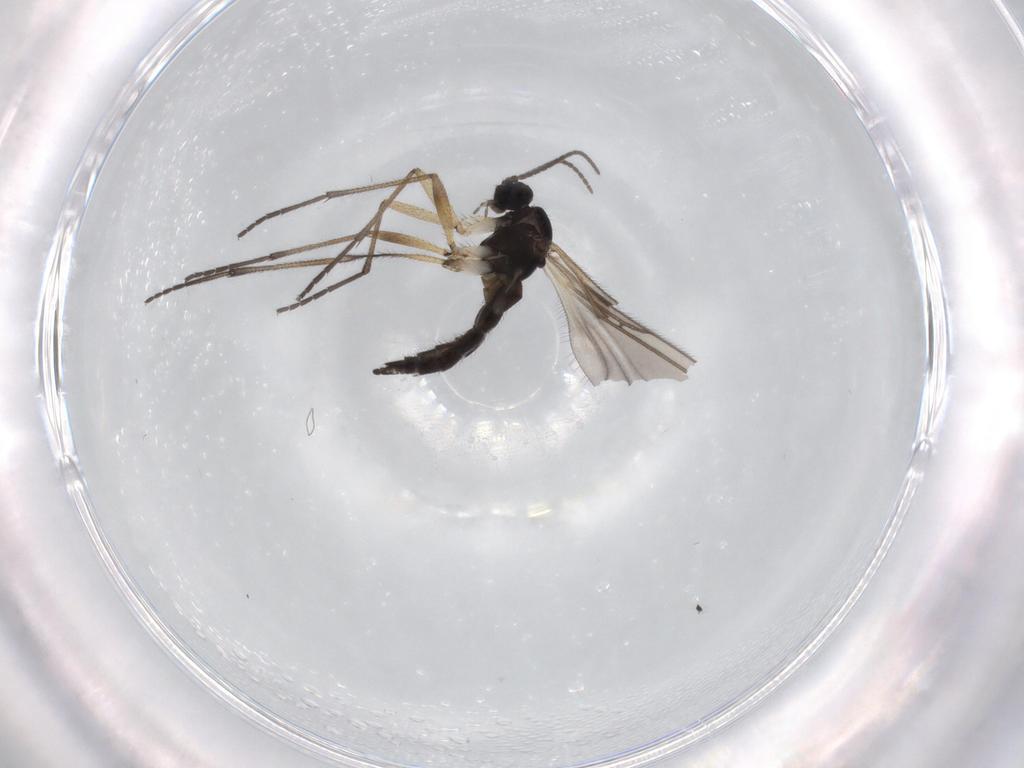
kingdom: Animalia
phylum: Arthropoda
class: Insecta
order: Diptera
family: Sciaridae
